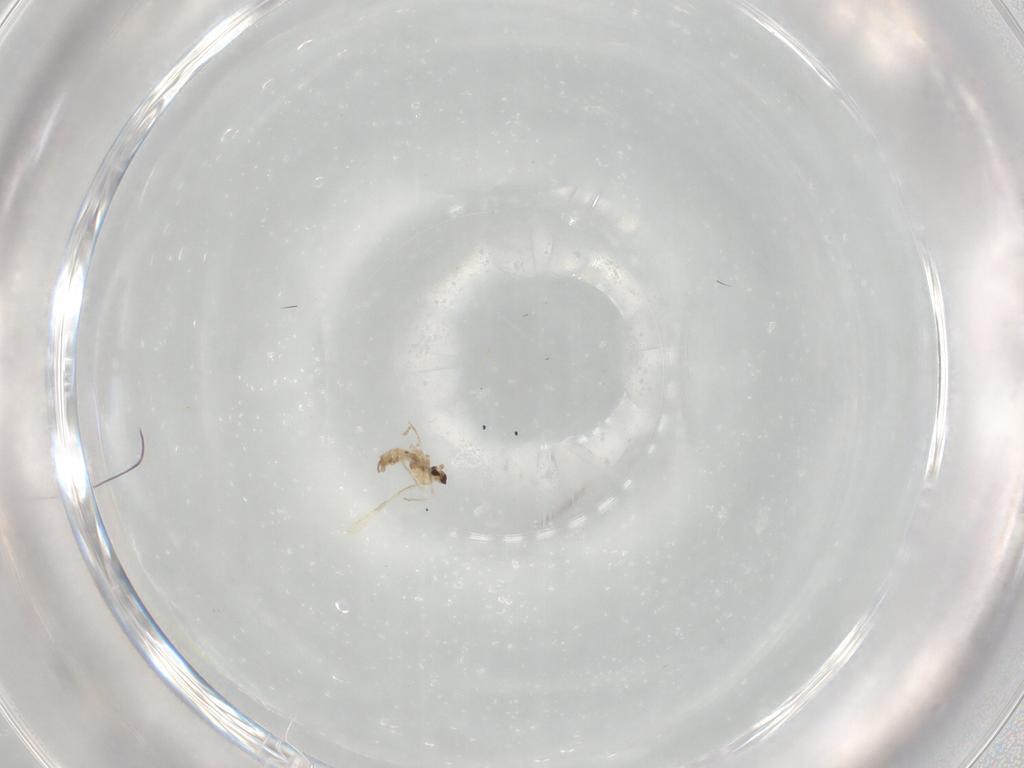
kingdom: Animalia
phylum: Arthropoda
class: Insecta
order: Diptera
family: Cecidomyiidae
